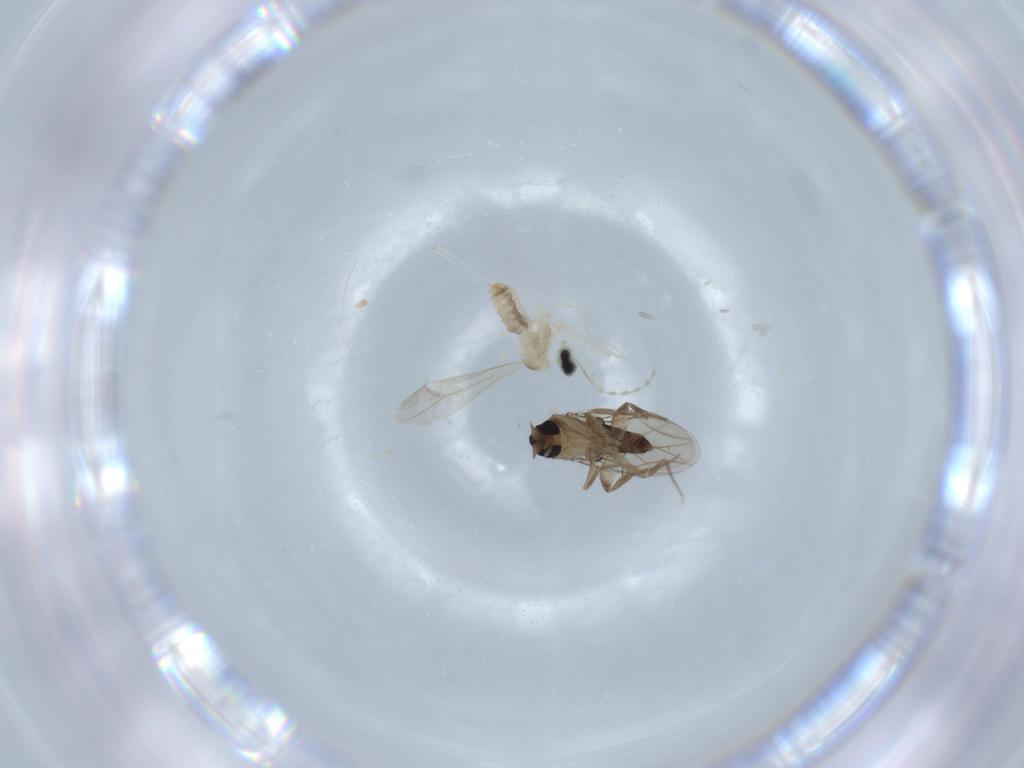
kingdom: Animalia
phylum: Arthropoda
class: Insecta
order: Diptera
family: Cecidomyiidae
